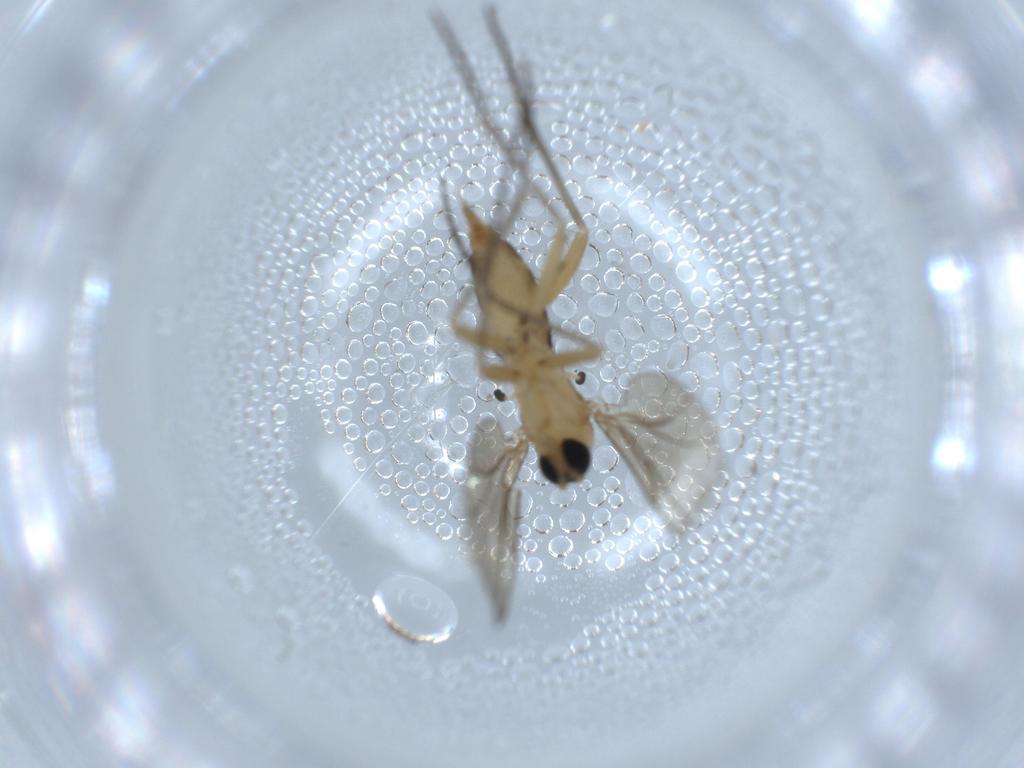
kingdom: Animalia
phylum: Arthropoda
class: Insecta
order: Diptera
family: Sciaridae
